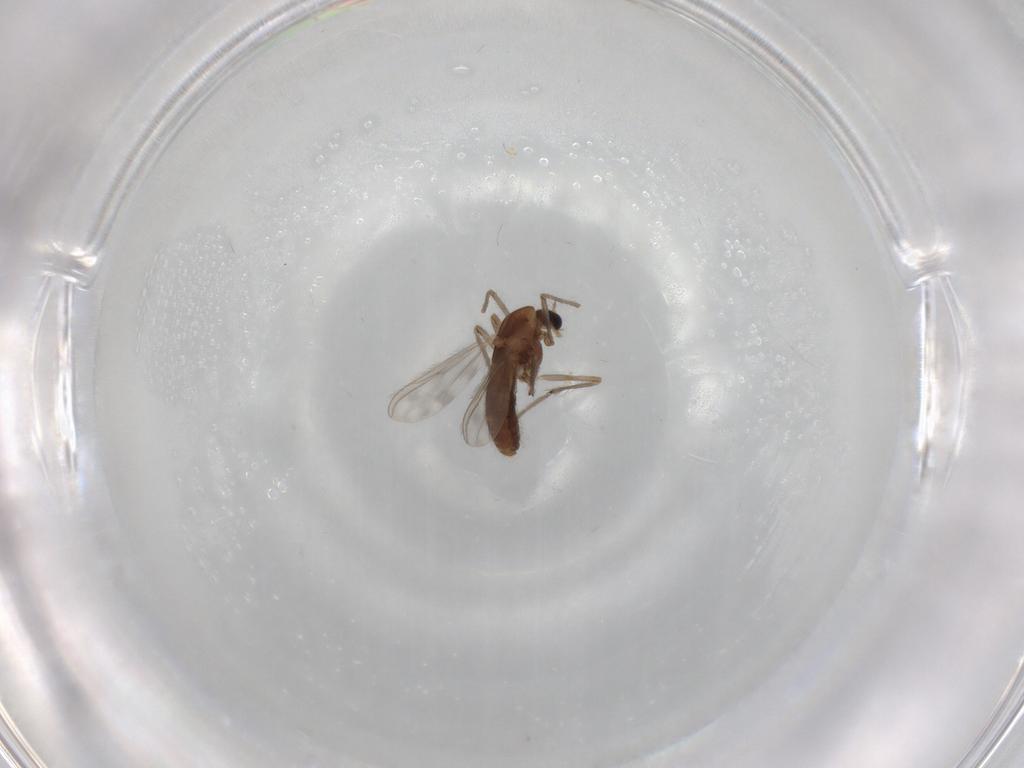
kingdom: Animalia
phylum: Arthropoda
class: Insecta
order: Diptera
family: Chironomidae
